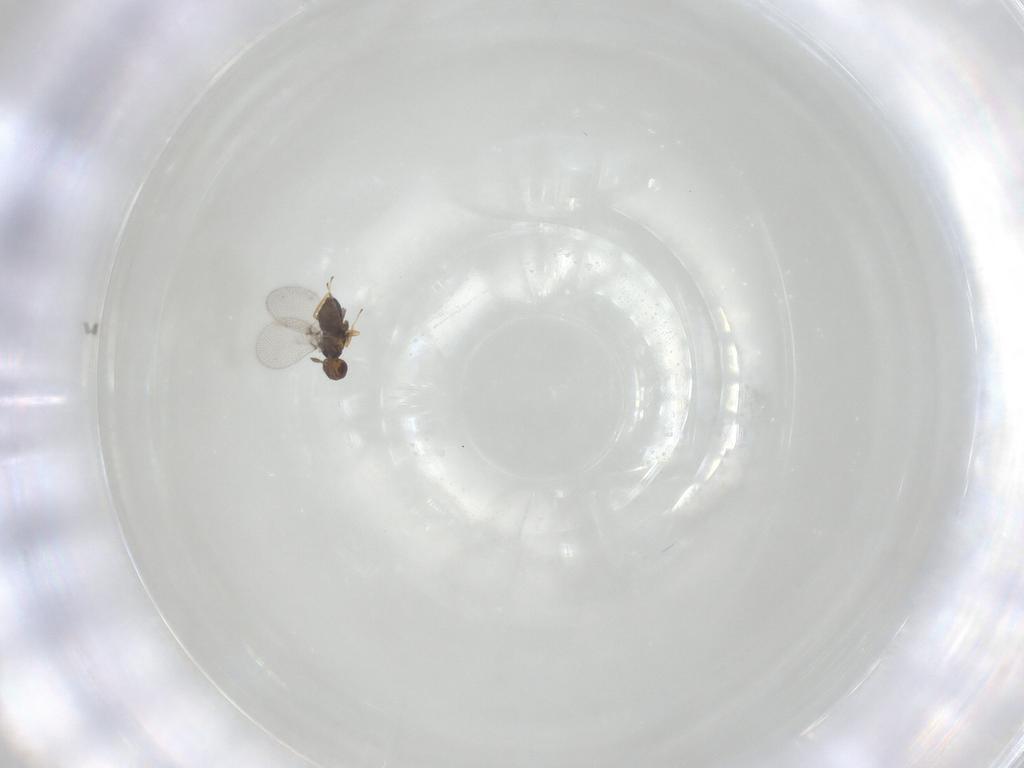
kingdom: Animalia
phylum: Arthropoda
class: Insecta
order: Hymenoptera
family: Trichogrammatidae
